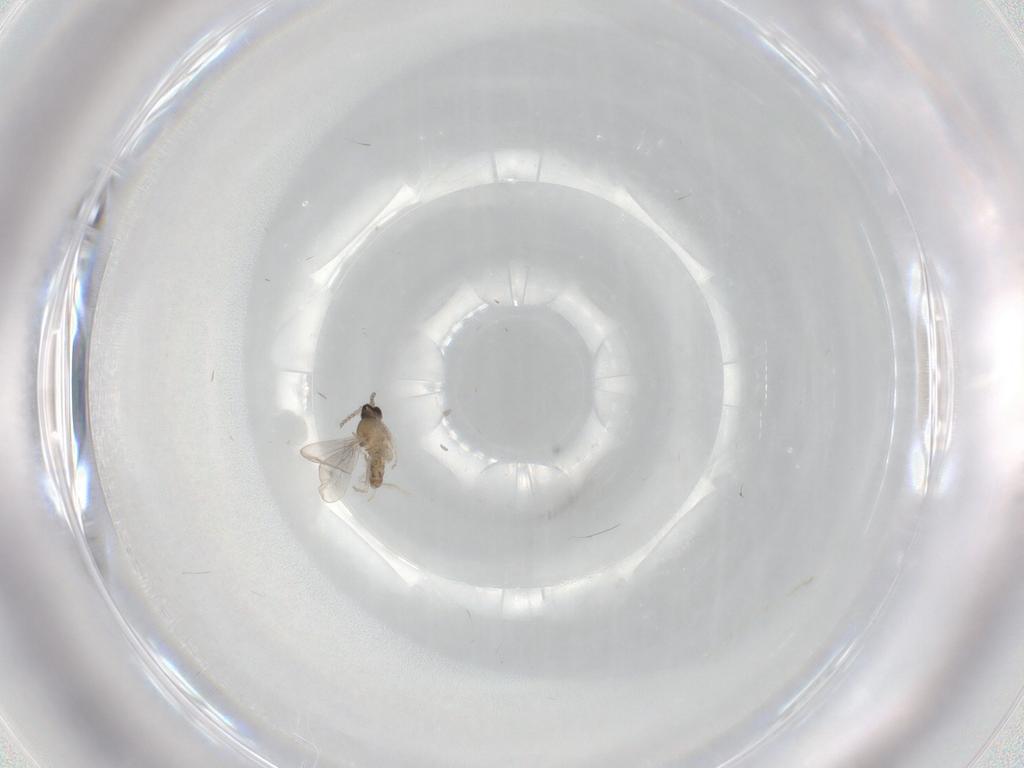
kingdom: Animalia
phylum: Arthropoda
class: Insecta
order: Diptera
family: Cecidomyiidae
